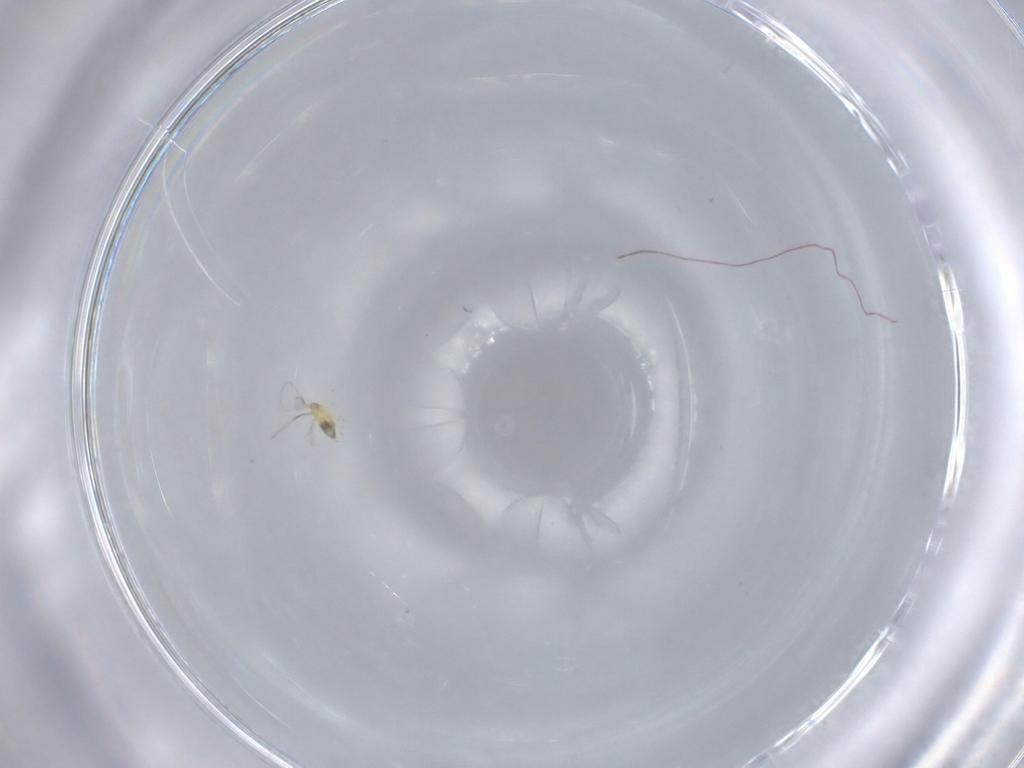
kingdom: Animalia
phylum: Arthropoda
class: Insecta
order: Hymenoptera
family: Trichogrammatidae
